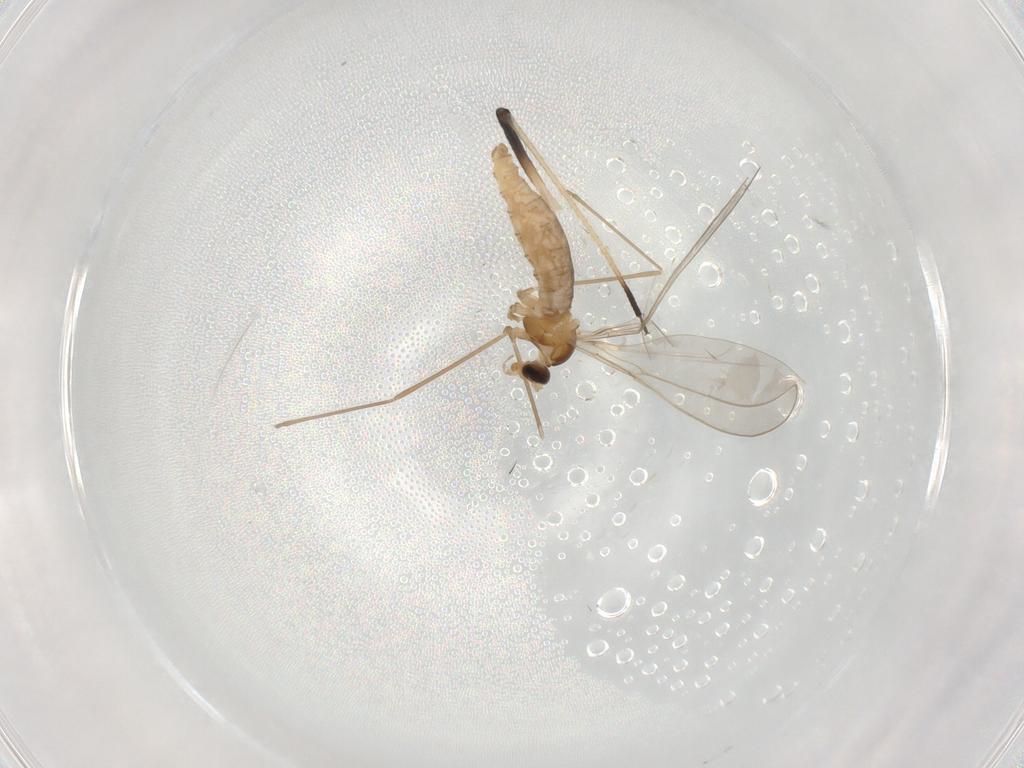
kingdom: Animalia
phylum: Arthropoda
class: Insecta
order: Diptera
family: Cecidomyiidae
